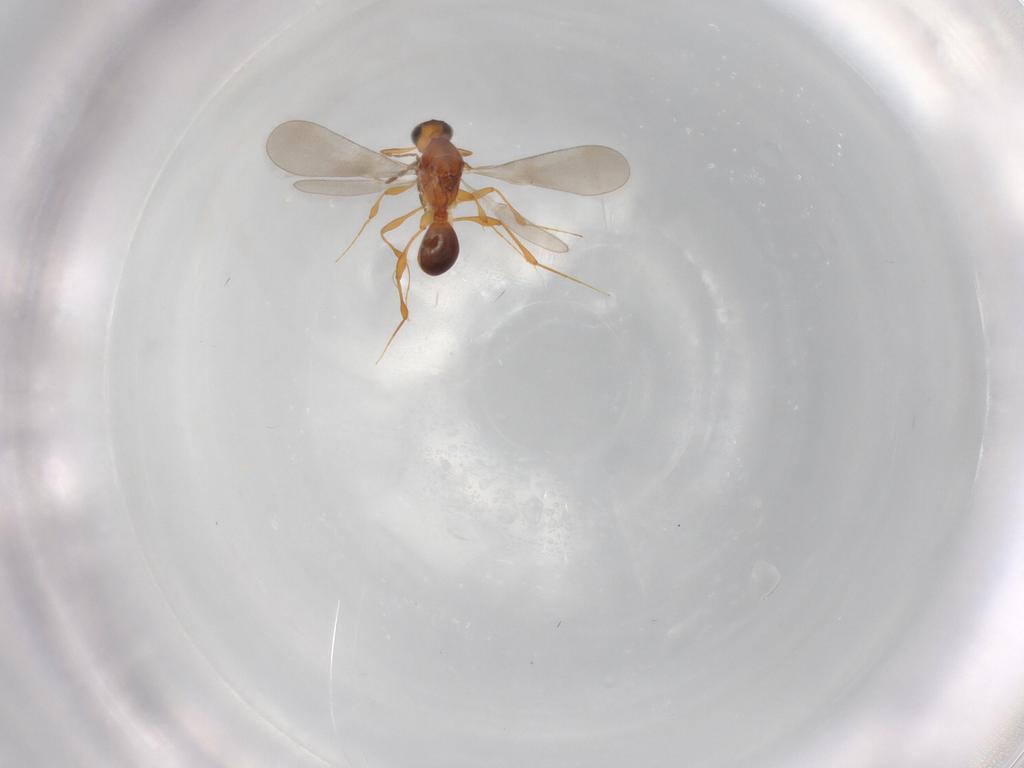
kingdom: Animalia
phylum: Arthropoda
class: Insecta
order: Hymenoptera
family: Platygastridae
